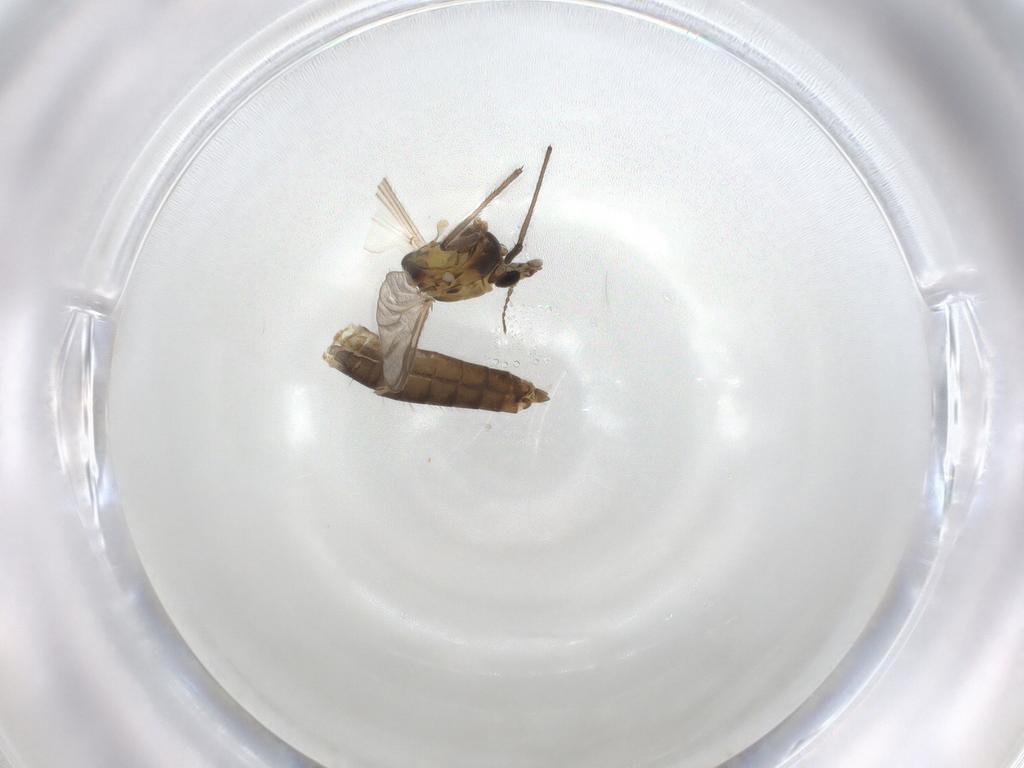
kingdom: Animalia
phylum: Arthropoda
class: Insecta
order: Diptera
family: Chironomidae
